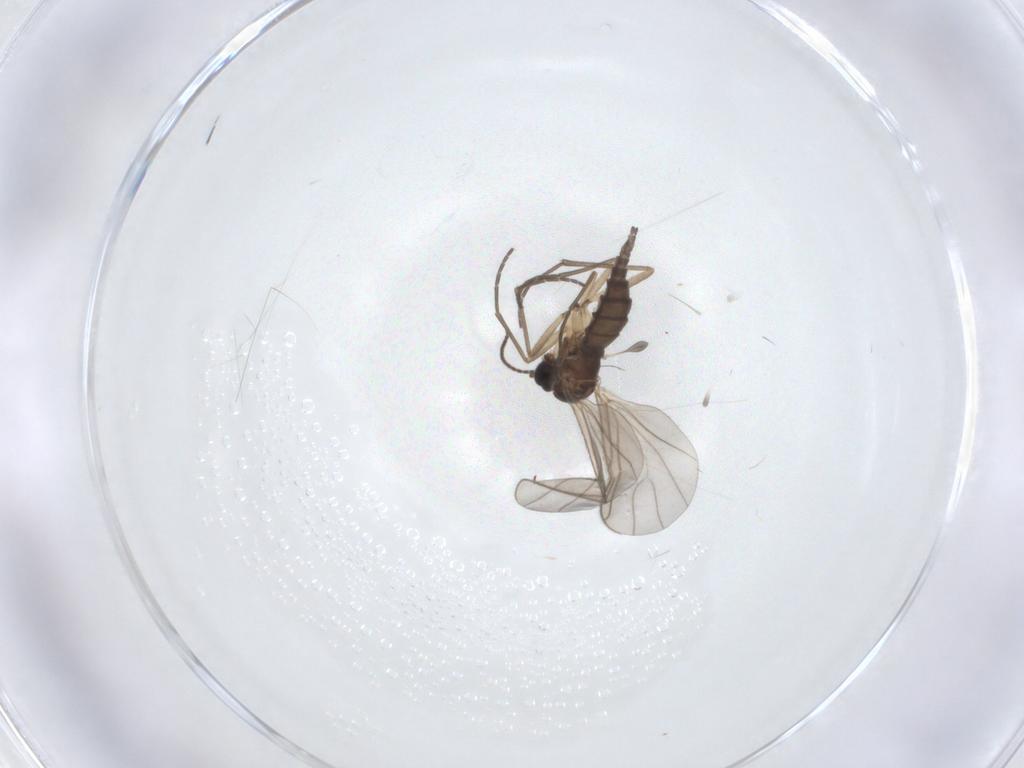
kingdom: Animalia
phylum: Arthropoda
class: Insecta
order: Diptera
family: Sciaridae
